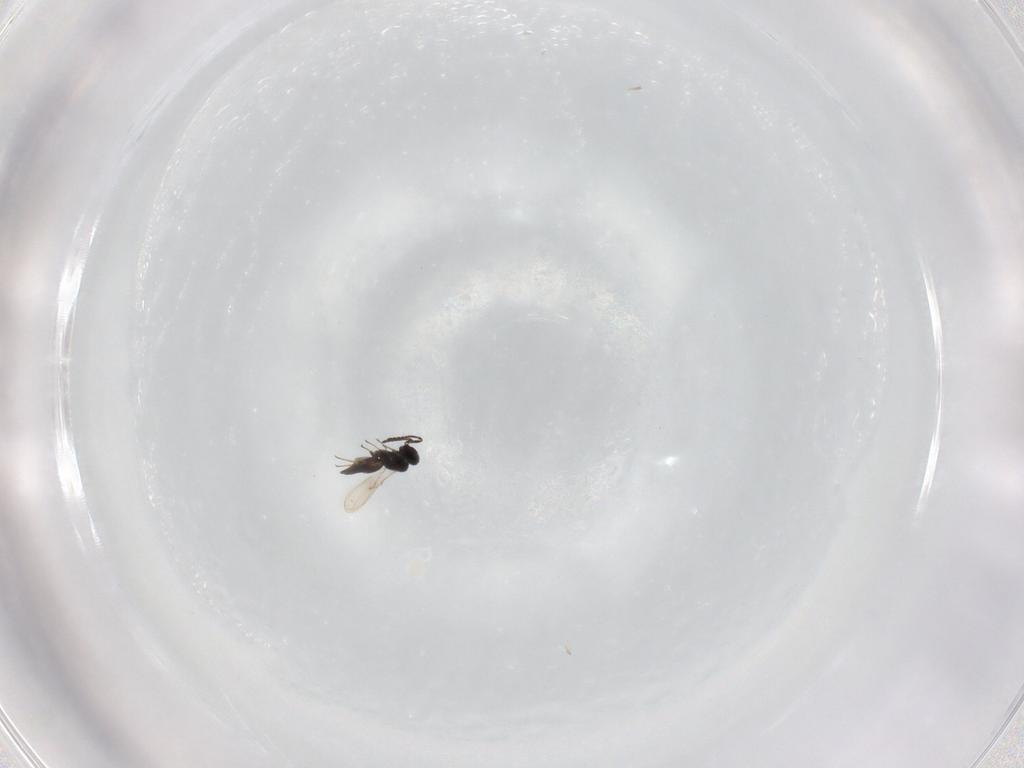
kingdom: Animalia
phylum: Arthropoda
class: Insecta
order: Hymenoptera
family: Scelionidae
